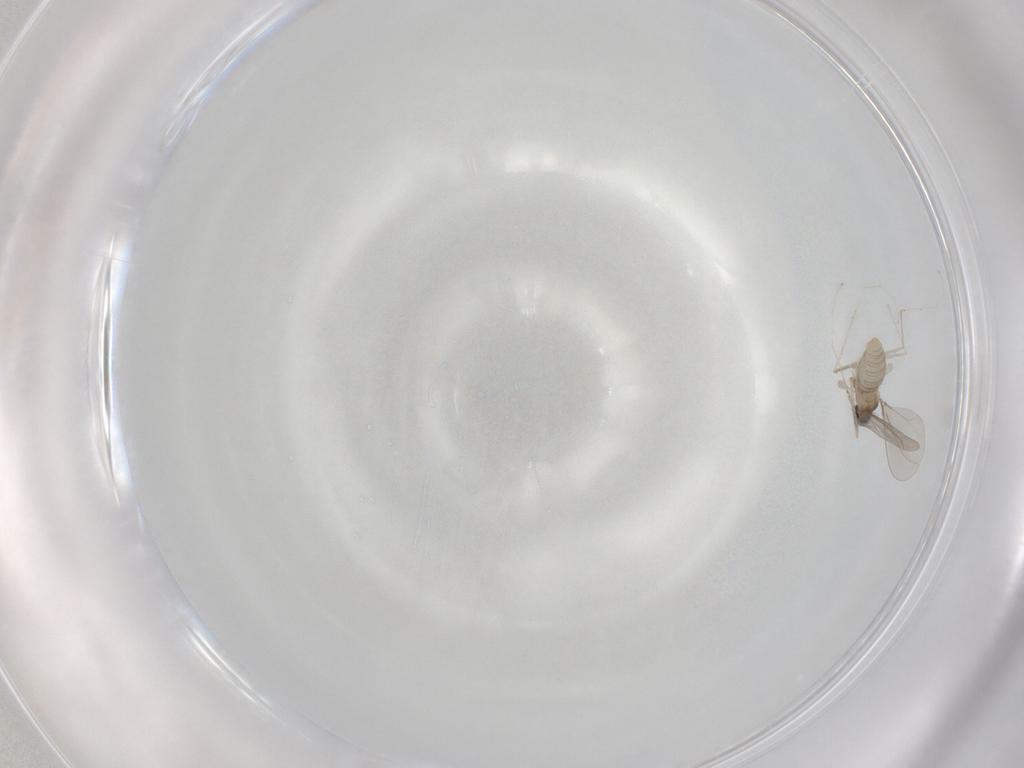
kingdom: Animalia
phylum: Arthropoda
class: Insecta
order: Diptera
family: Cecidomyiidae
